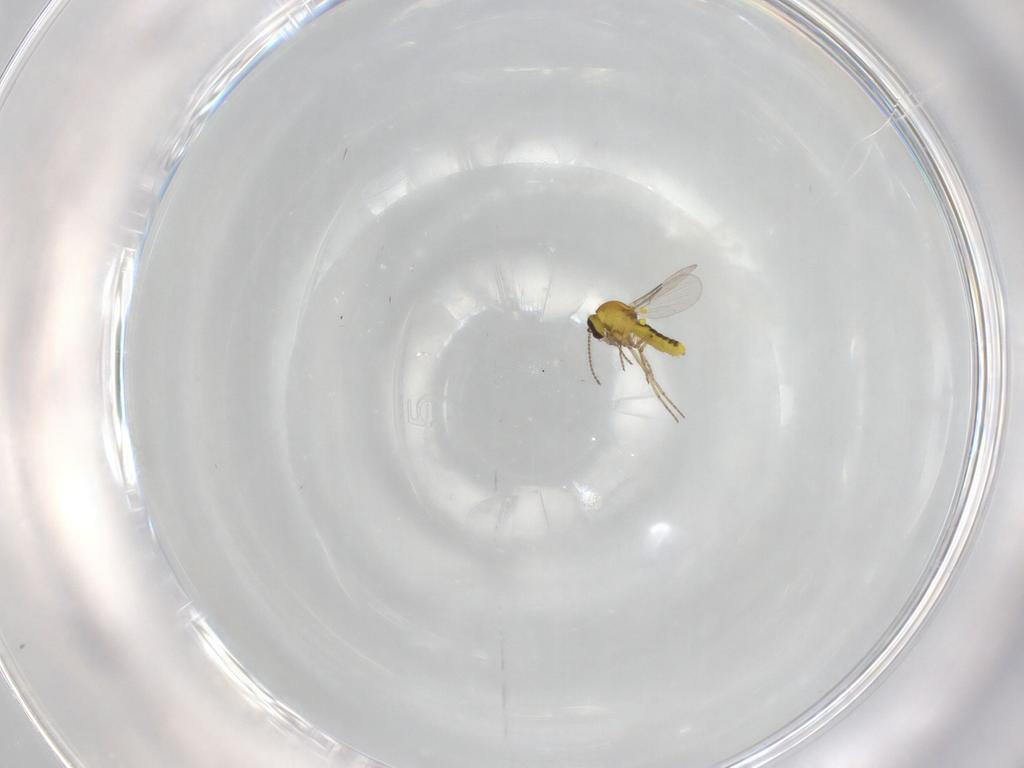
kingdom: Animalia
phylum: Arthropoda
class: Insecta
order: Diptera
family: Ceratopogonidae
